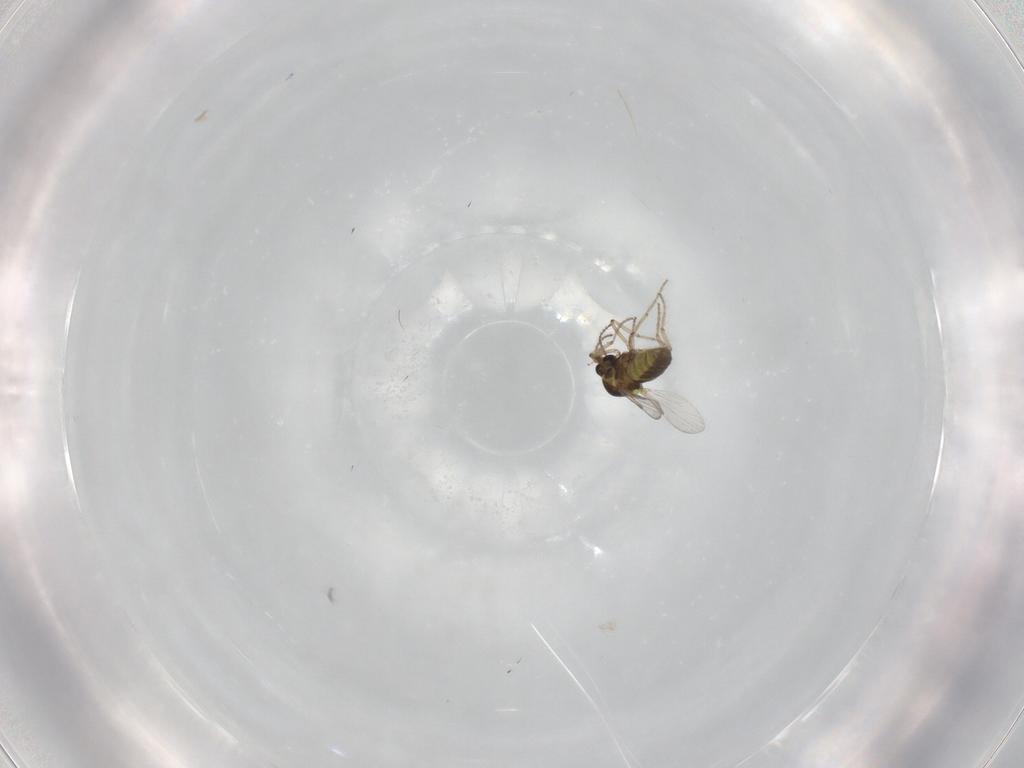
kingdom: Animalia
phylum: Arthropoda
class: Insecta
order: Diptera
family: Ceratopogonidae
